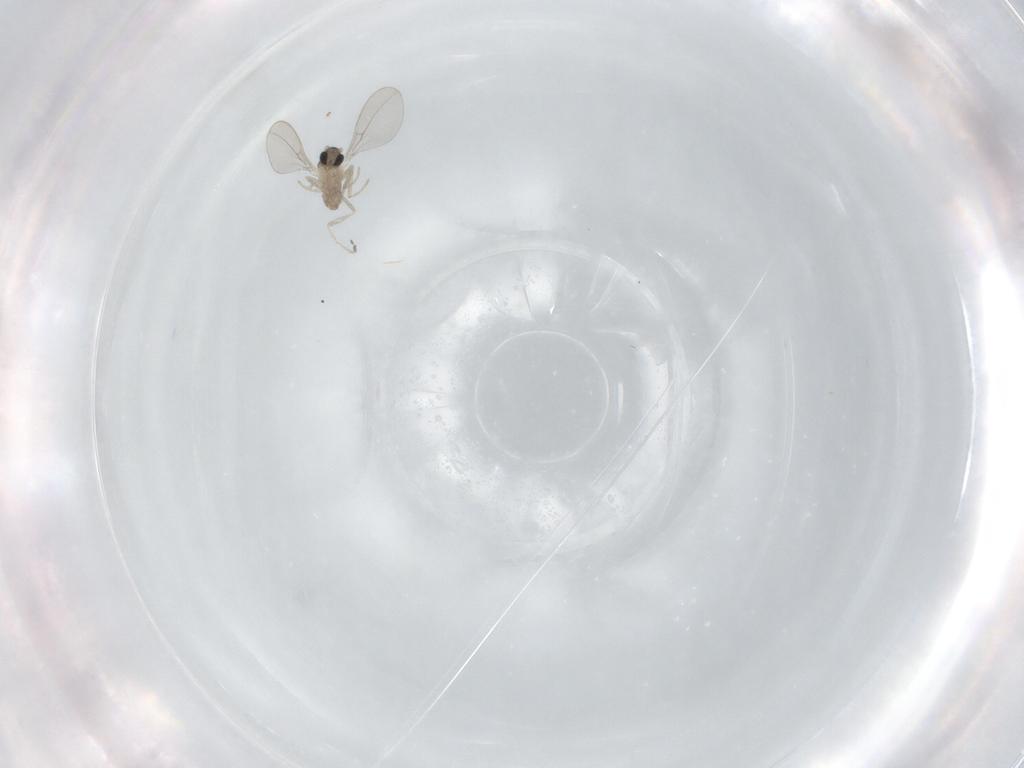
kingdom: Animalia
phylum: Arthropoda
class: Insecta
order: Diptera
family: Cecidomyiidae
